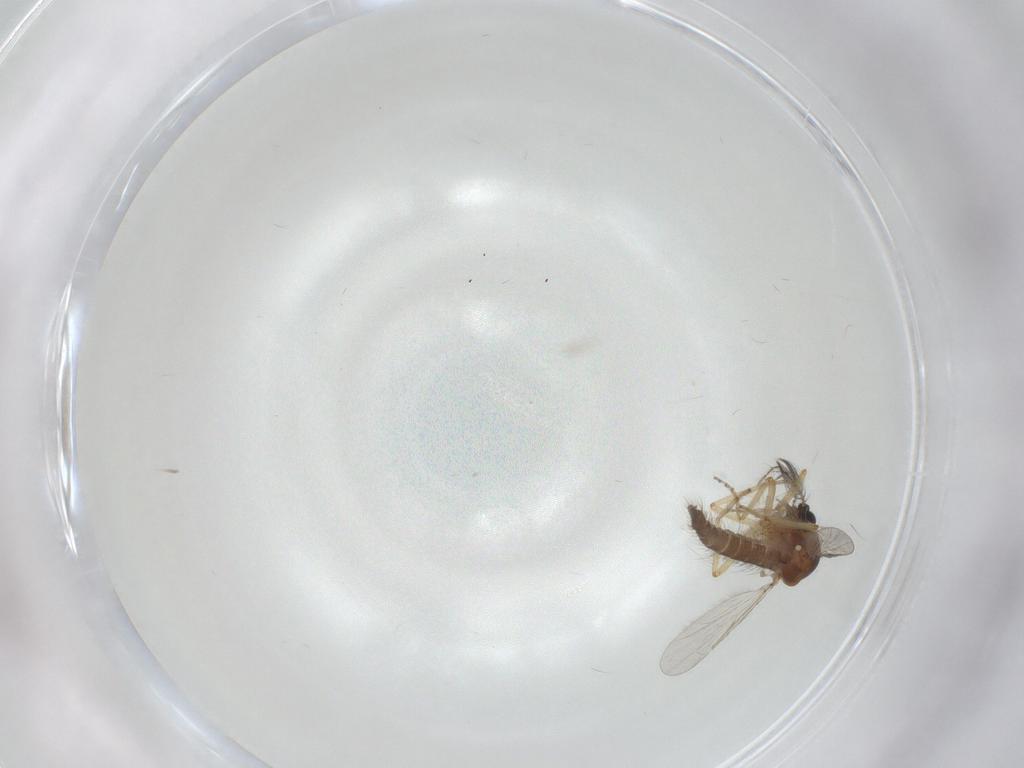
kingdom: Animalia
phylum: Arthropoda
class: Insecta
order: Diptera
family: Ceratopogonidae
